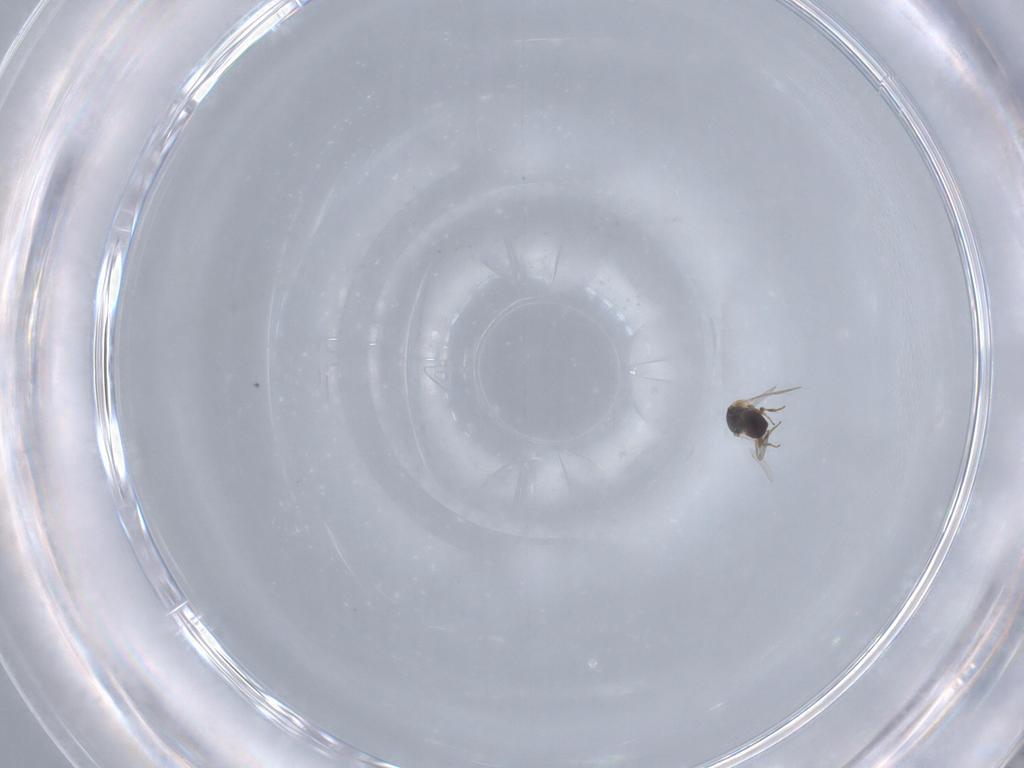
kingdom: Animalia
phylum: Arthropoda
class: Insecta
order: Hymenoptera
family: Platygastridae
